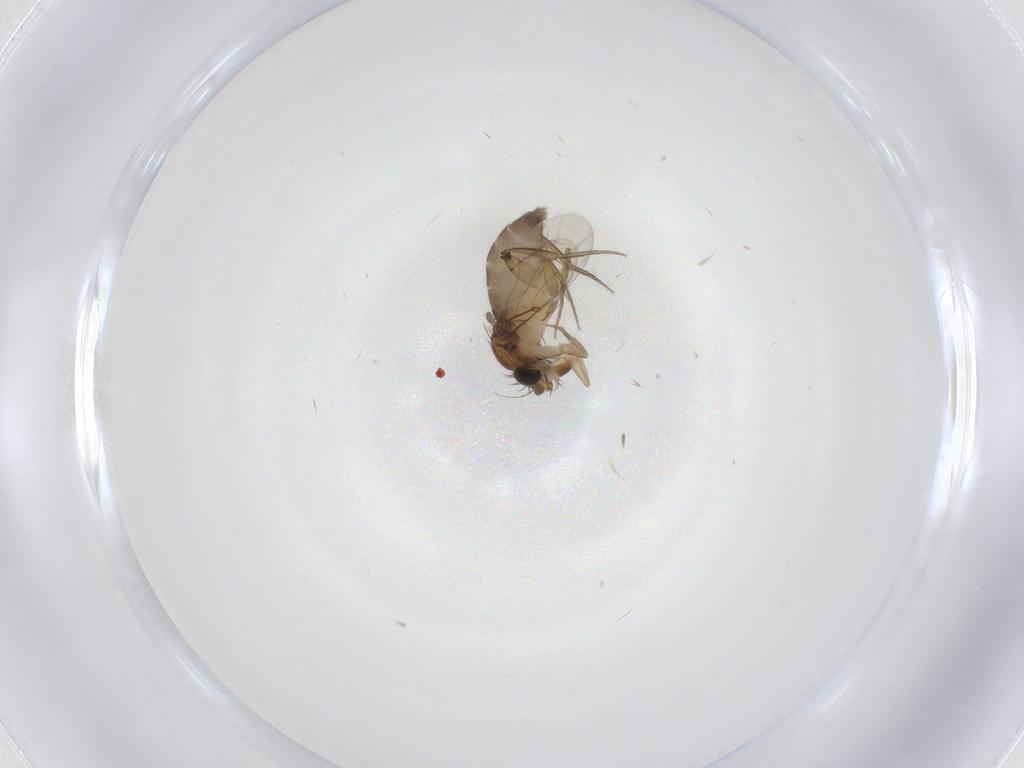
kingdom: Animalia
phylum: Arthropoda
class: Insecta
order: Diptera
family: Phoridae
